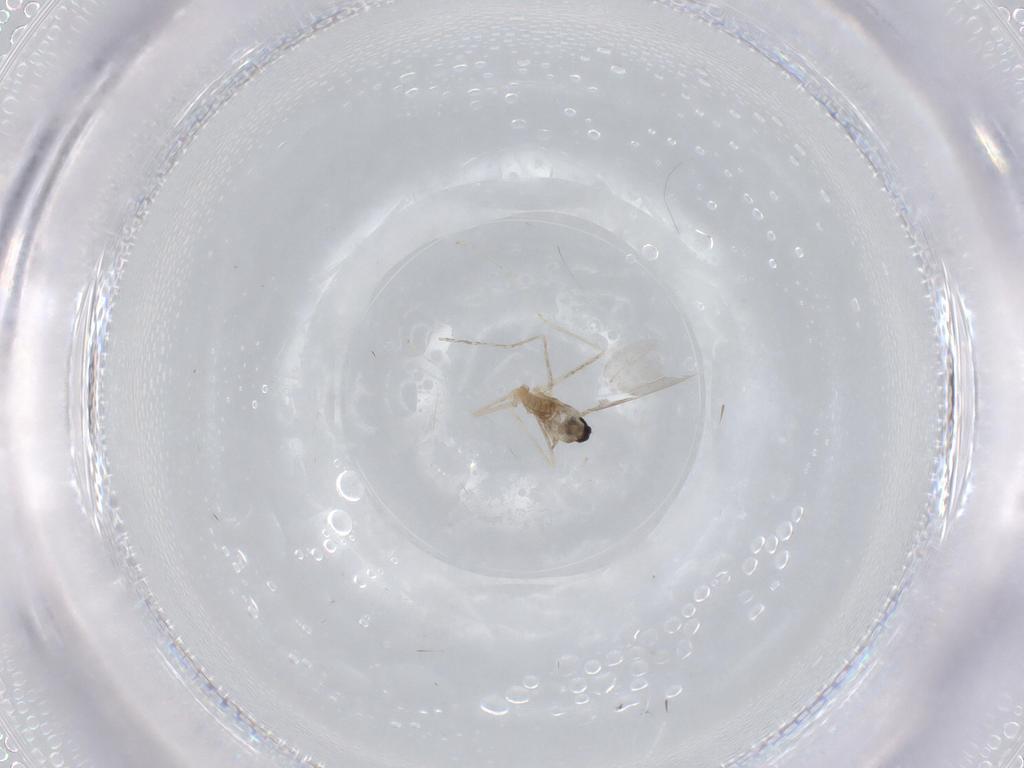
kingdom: Animalia
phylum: Arthropoda
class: Insecta
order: Diptera
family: Cecidomyiidae
